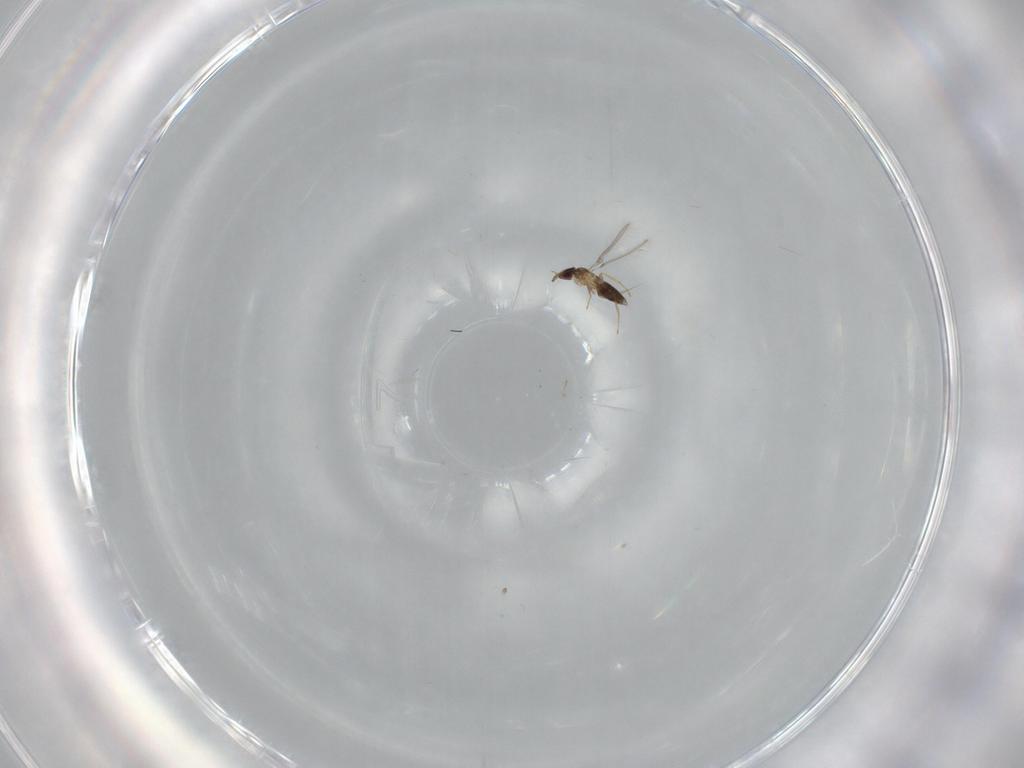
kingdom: Animalia
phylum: Arthropoda
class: Insecta
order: Hymenoptera
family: Mymaridae
